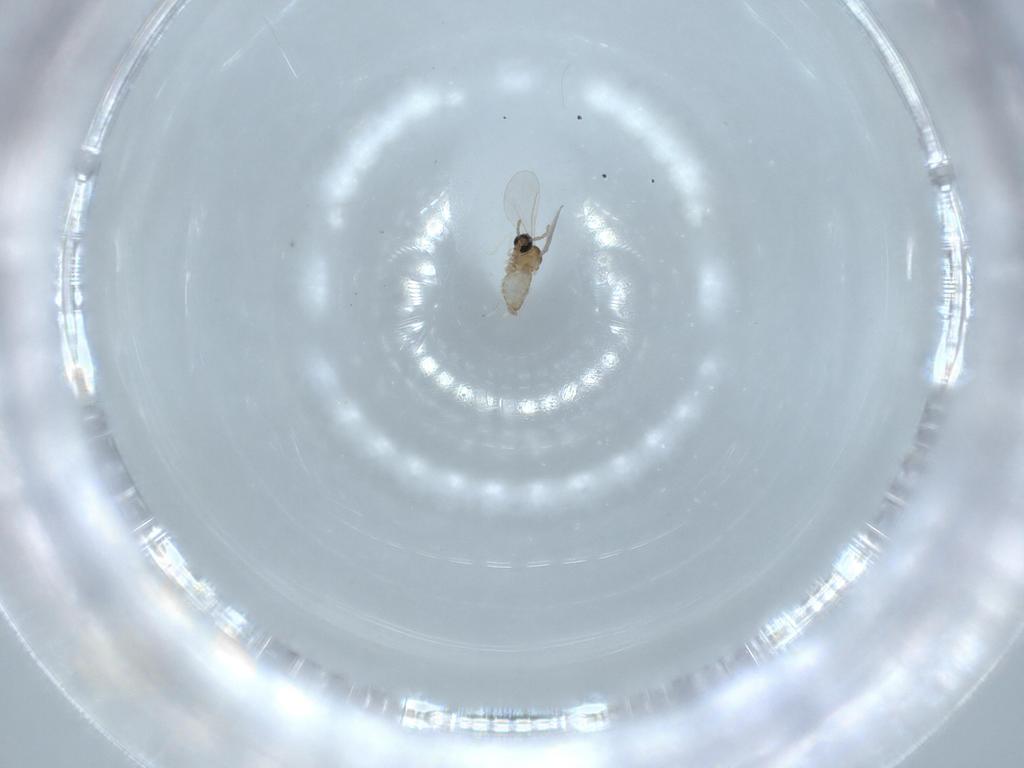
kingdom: Animalia
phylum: Arthropoda
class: Insecta
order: Diptera
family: Cecidomyiidae
